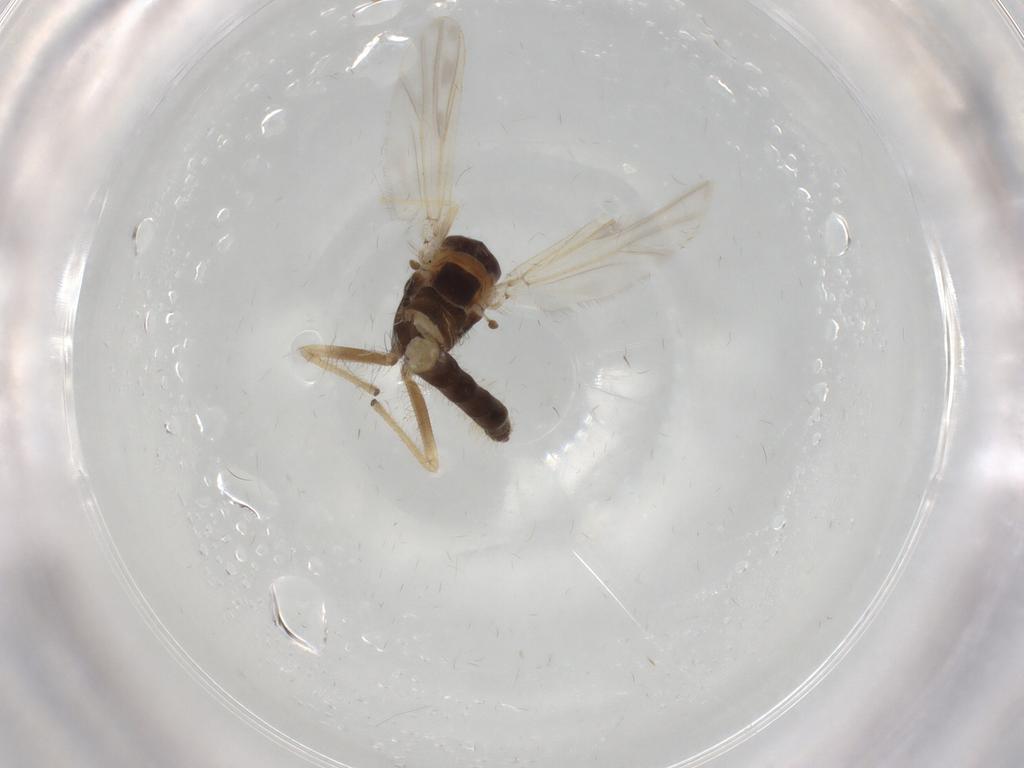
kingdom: Animalia
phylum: Arthropoda
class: Insecta
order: Diptera
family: Chironomidae
